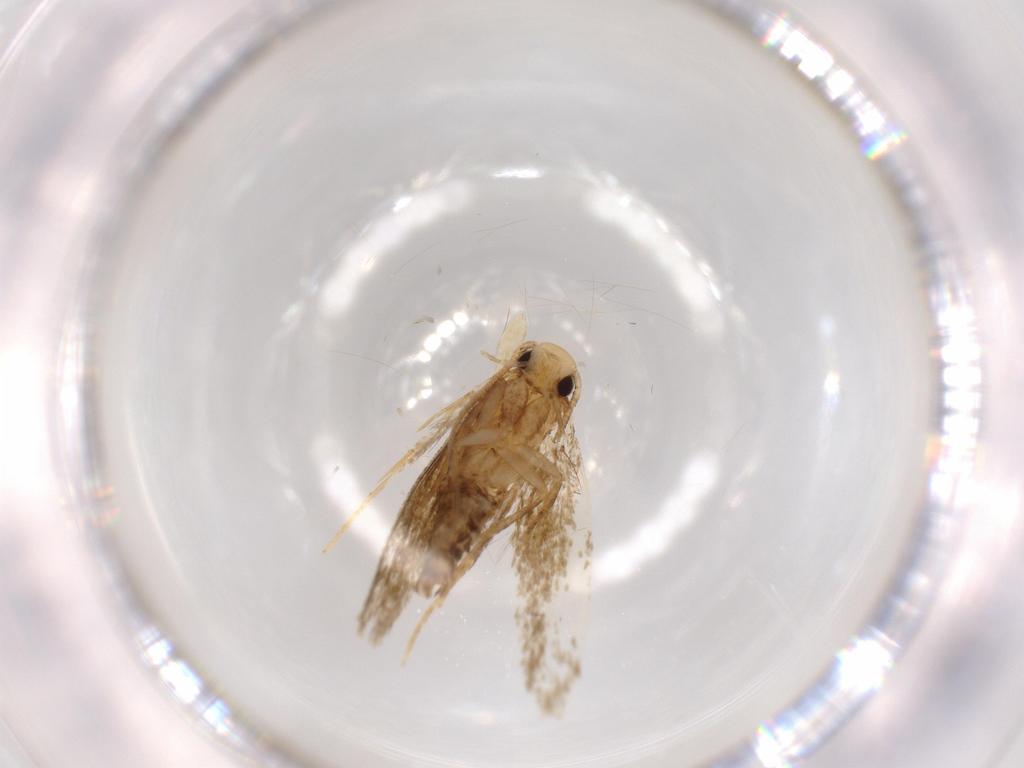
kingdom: Animalia
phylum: Arthropoda
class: Insecta
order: Lepidoptera
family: Tineidae
